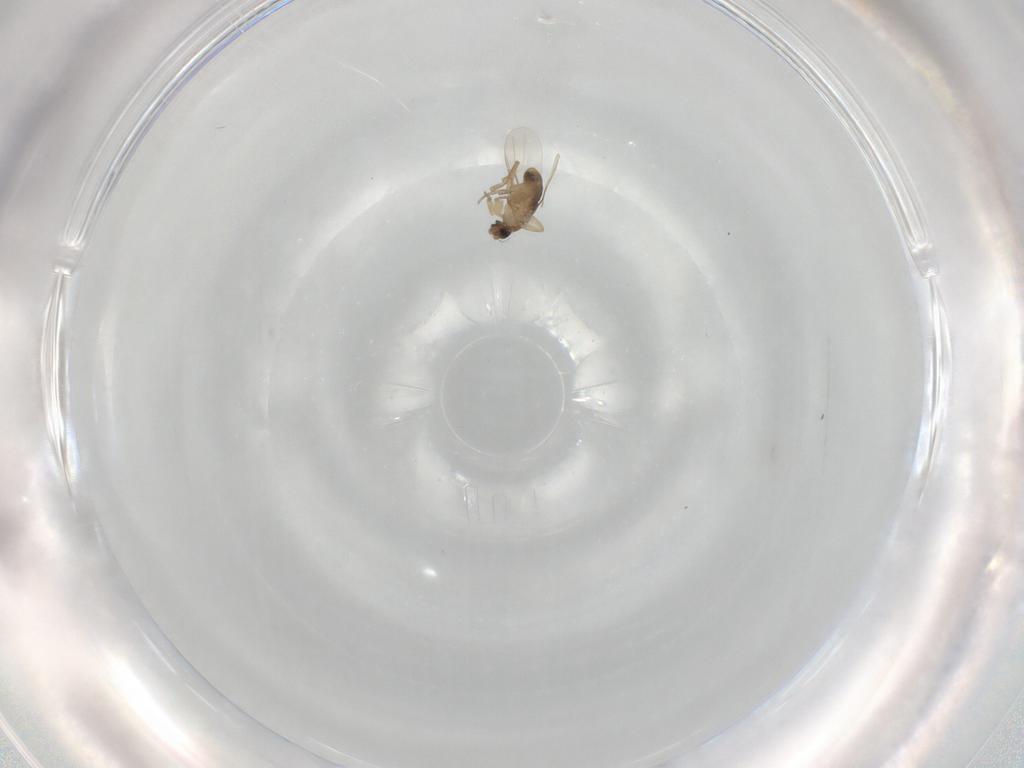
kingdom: Animalia
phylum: Arthropoda
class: Insecta
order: Diptera
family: Phoridae
